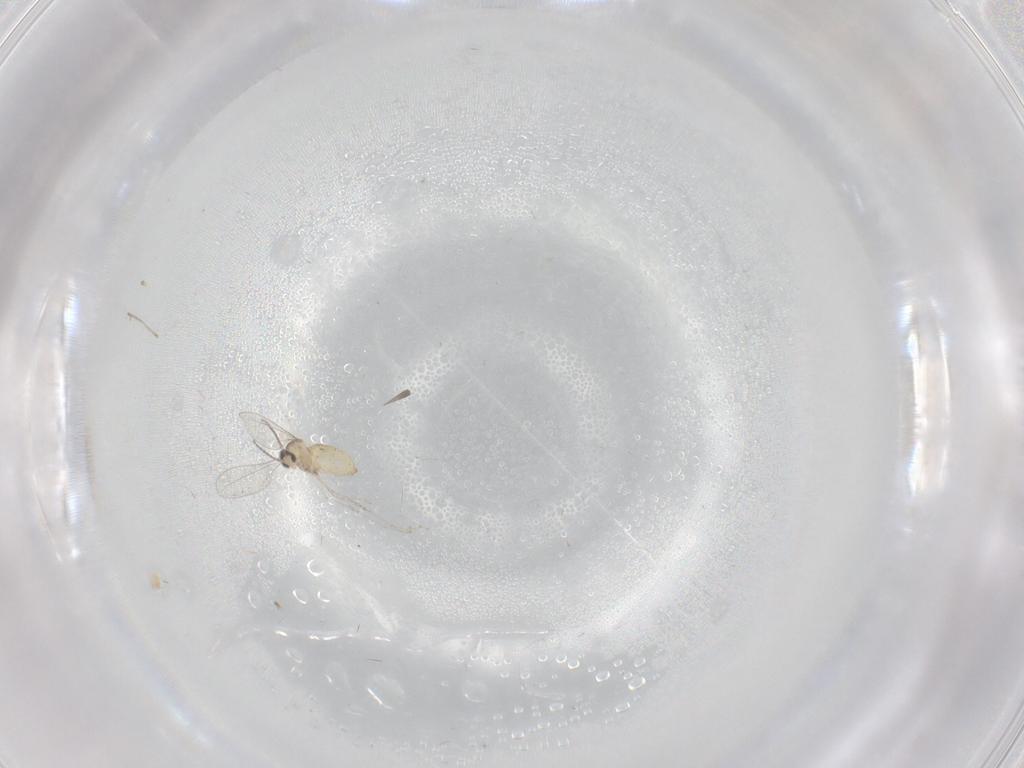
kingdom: Animalia
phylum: Arthropoda
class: Insecta
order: Diptera
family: Cecidomyiidae
